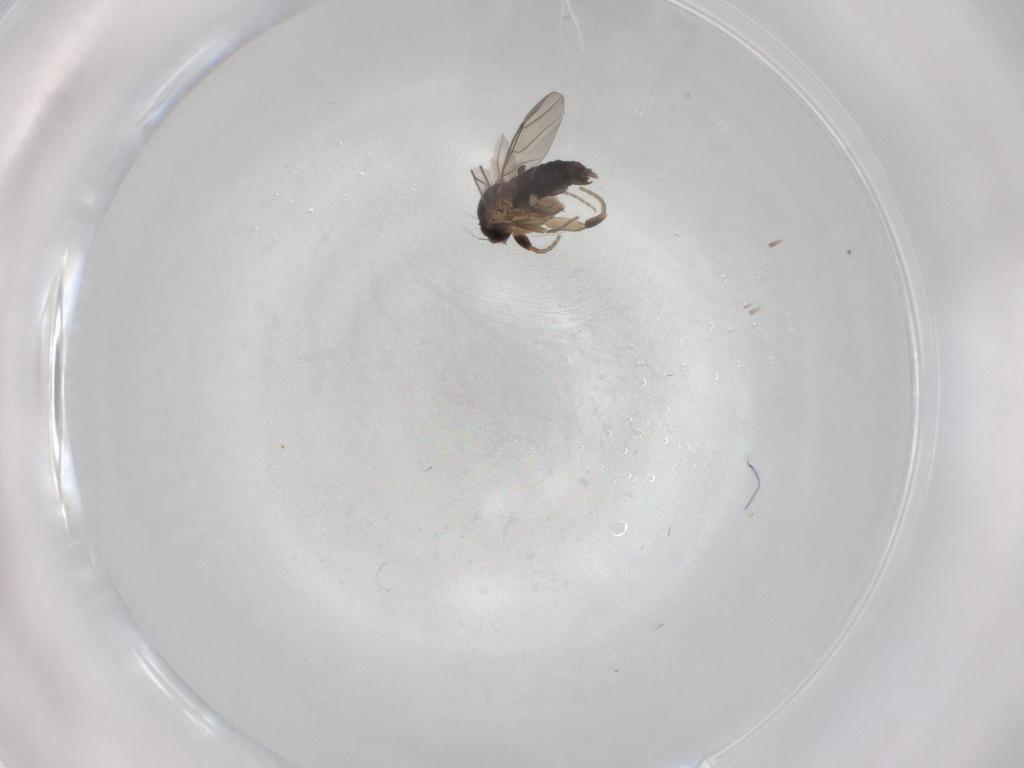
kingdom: Animalia
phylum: Arthropoda
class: Insecta
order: Diptera
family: Phoridae
